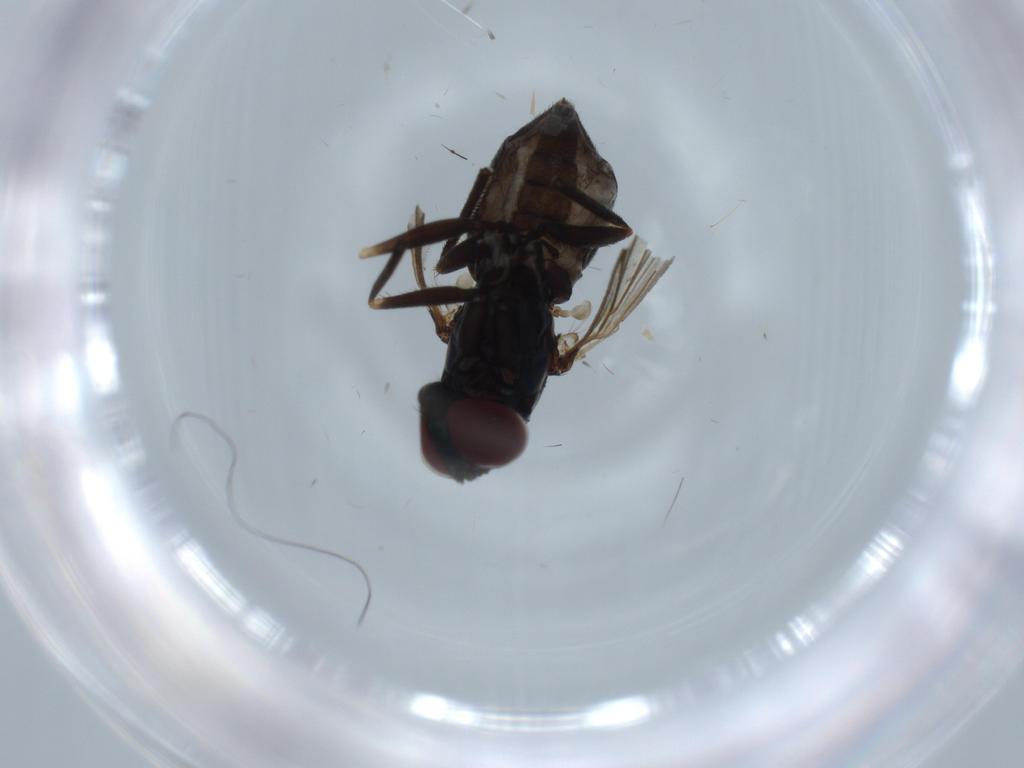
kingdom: Animalia
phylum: Arthropoda
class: Insecta
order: Diptera
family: Dolichopodidae
